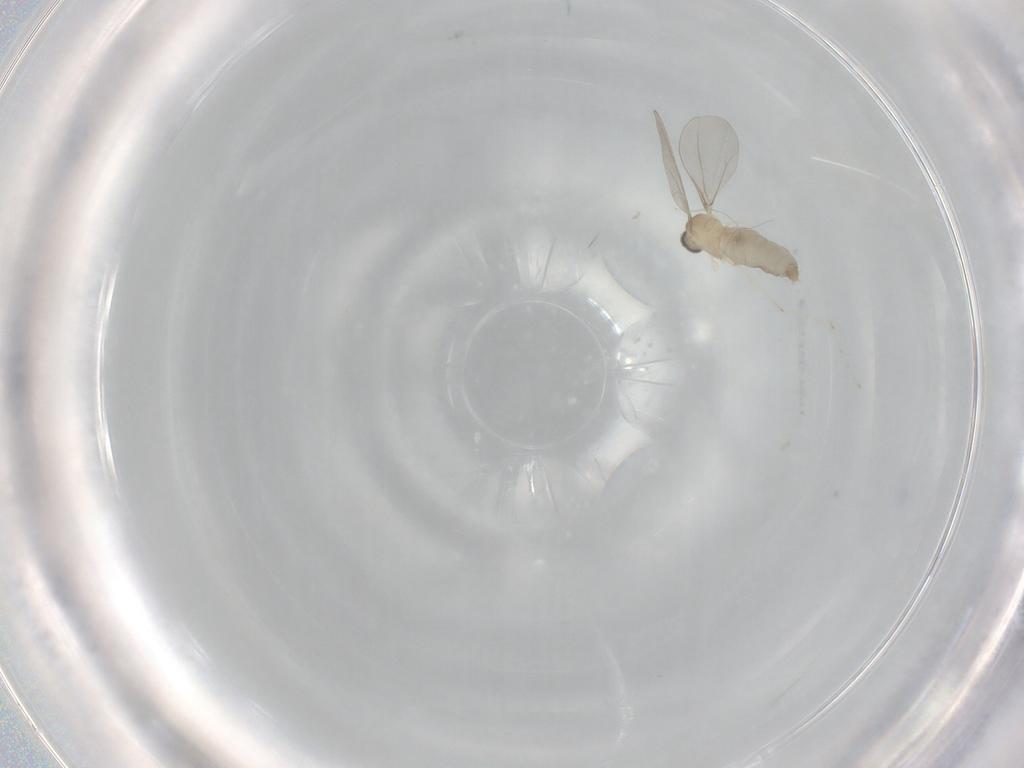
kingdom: Animalia
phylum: Arthropoda
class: Insecta
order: Diptera
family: Cecidomyiidae
